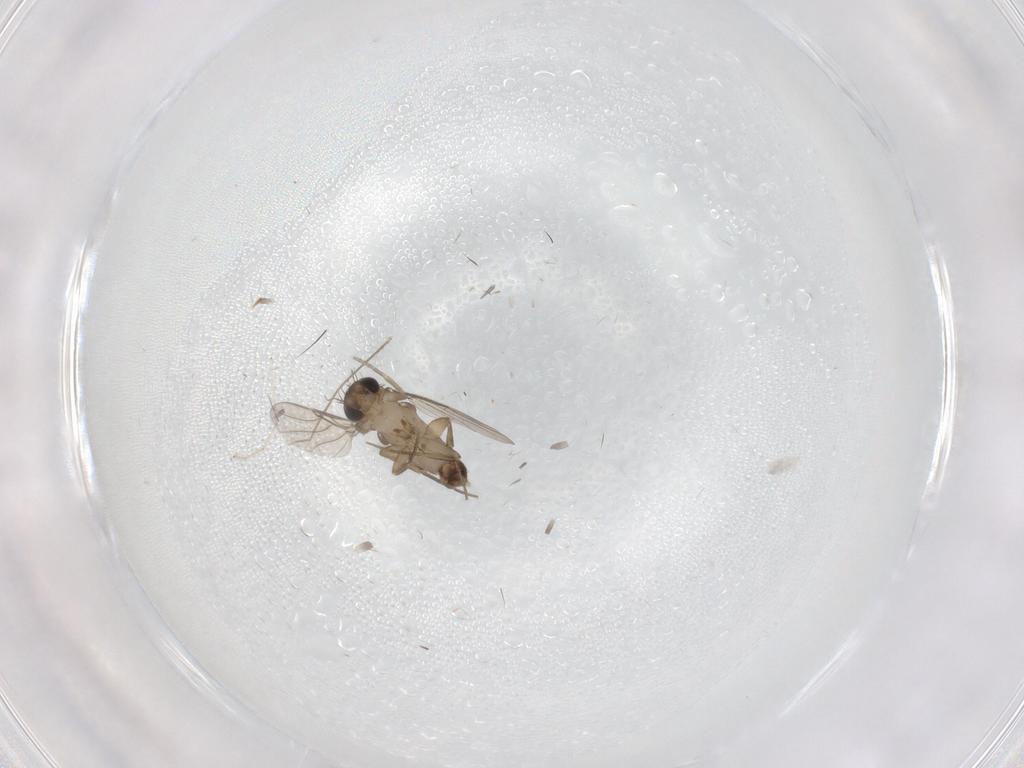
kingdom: Animalia
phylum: Arthropoda
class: Insecta
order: Diptera
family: Phoridae
